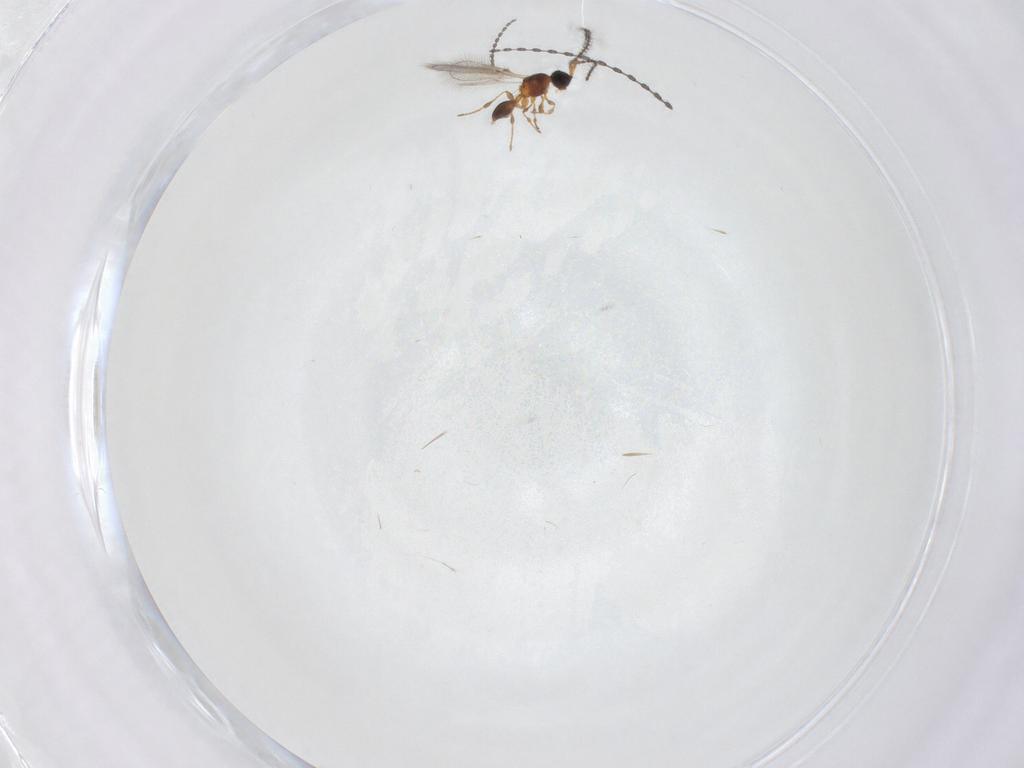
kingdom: Animalia
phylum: Arthropoda
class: Insecta
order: Hymenoptera
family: Diapriidae
